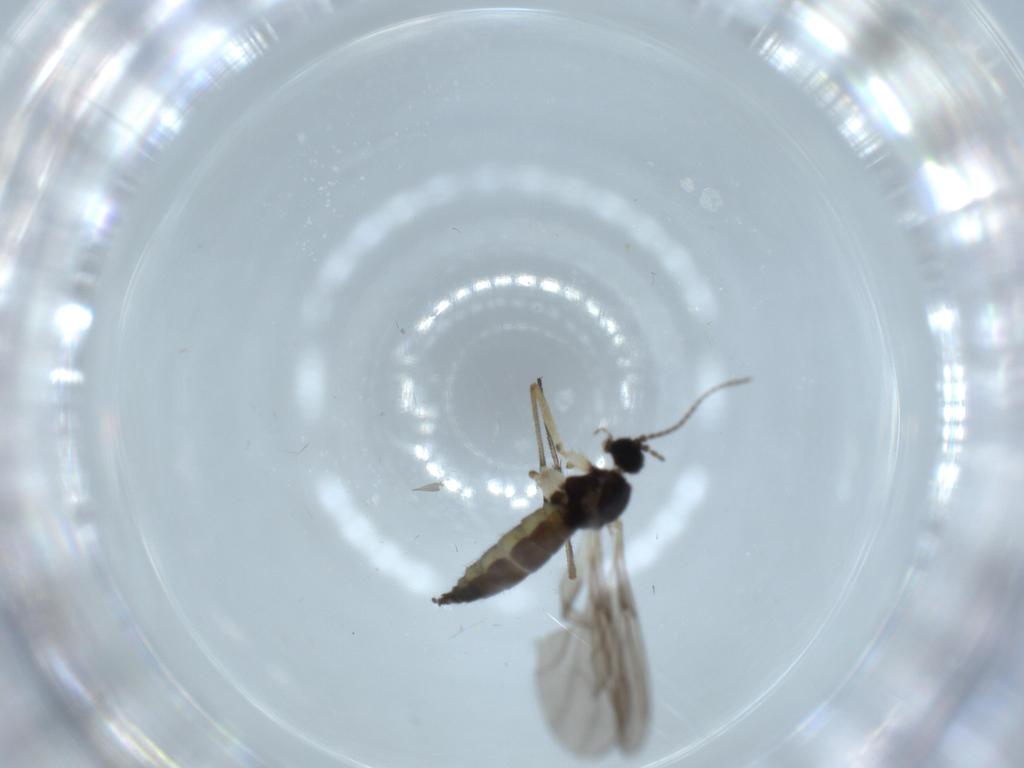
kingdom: Animalia
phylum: Arthropoda
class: Insecta
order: Diptera
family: Sciaridae
